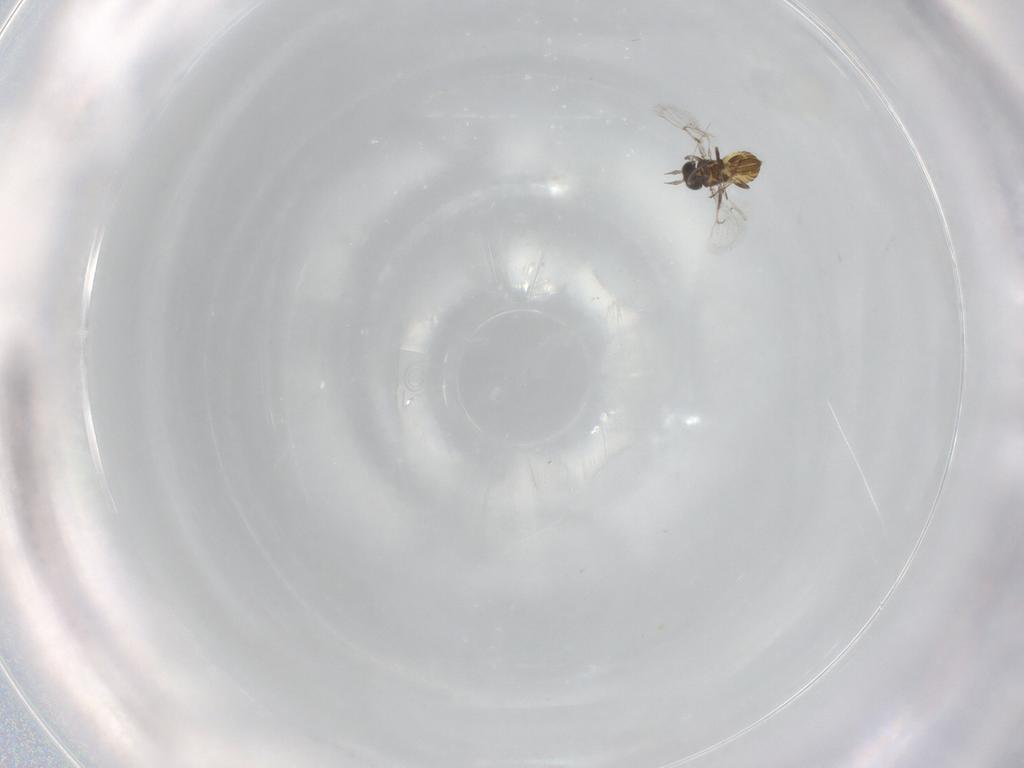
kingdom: Animalia
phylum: Arthropoda
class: Insecta
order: Hymenoptera
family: Trichogrammatidae
